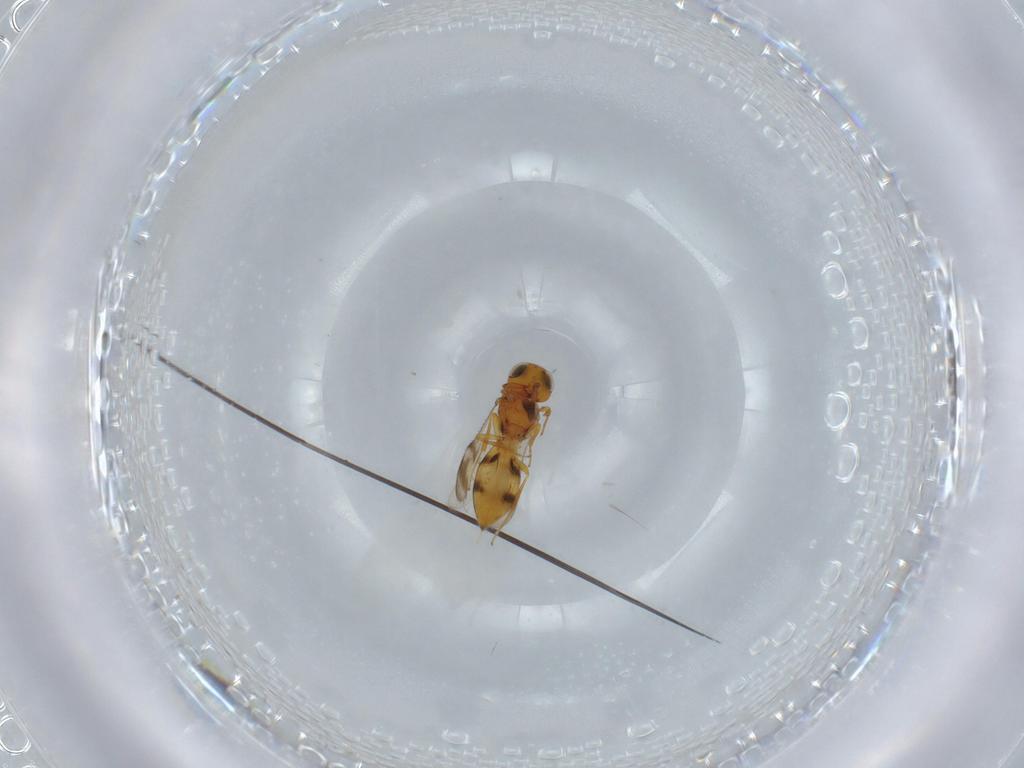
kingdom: Animalia
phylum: Arthropoda
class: Insecta
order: Hymenoptera
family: Scelionidae
